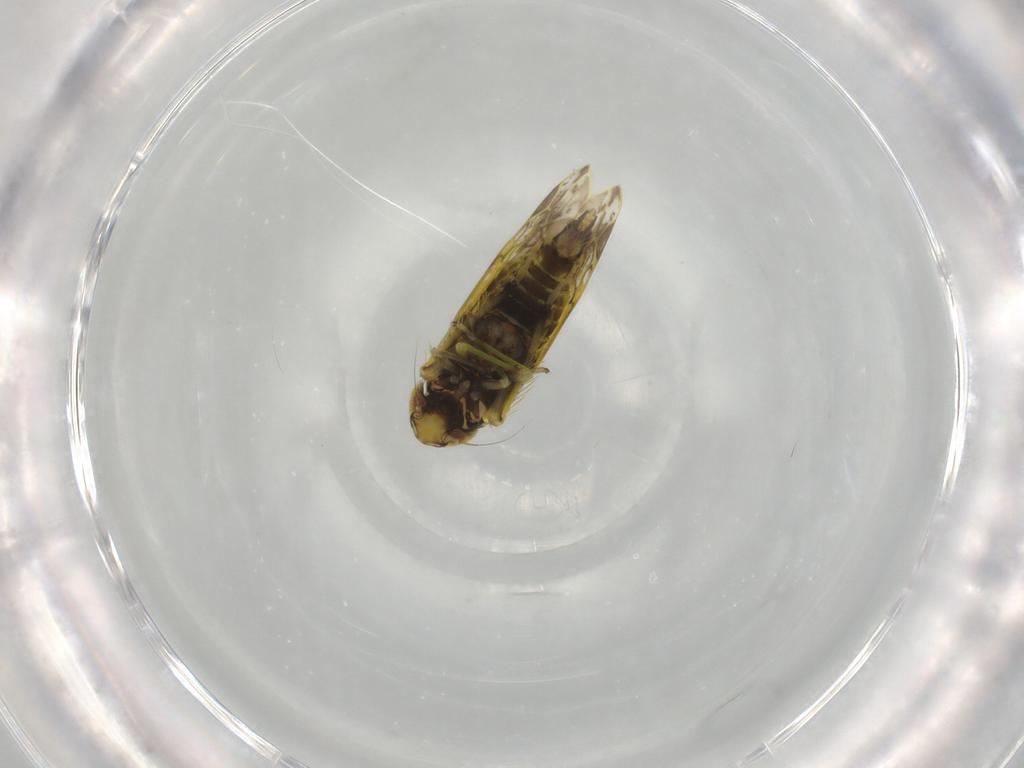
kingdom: Animalia
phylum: Arthropoda
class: Insecta
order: Hemiptera
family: Cicadellidae
